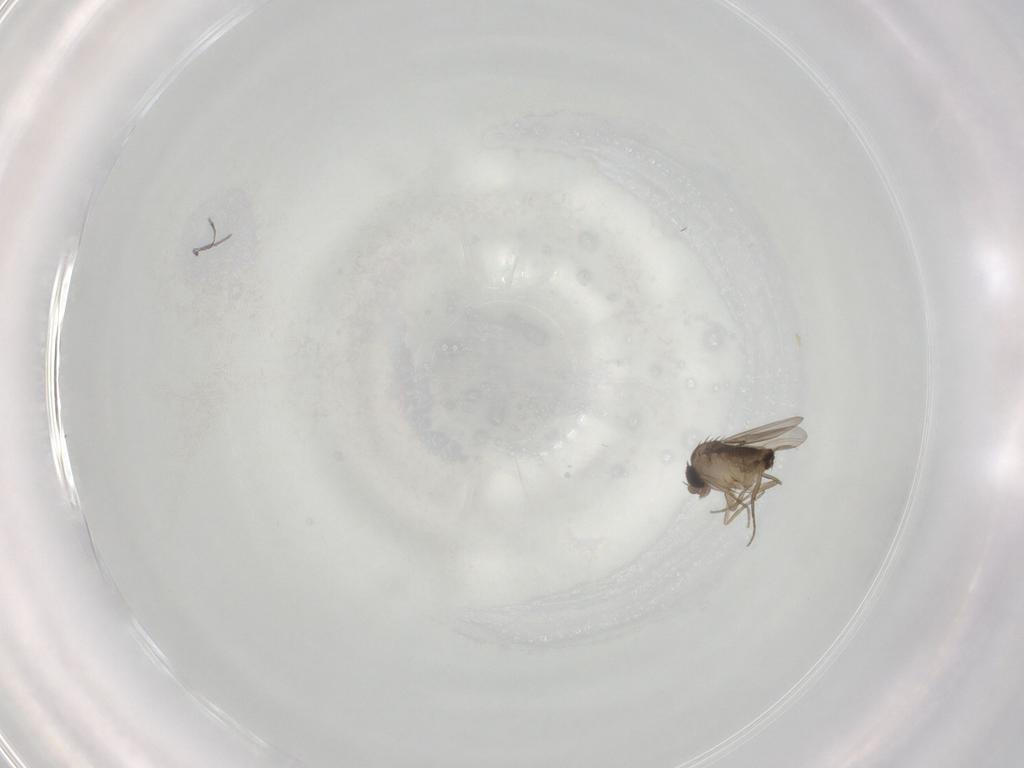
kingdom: Animalia
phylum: Arthropoda
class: Insecta
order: Diptera
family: Phoridae
